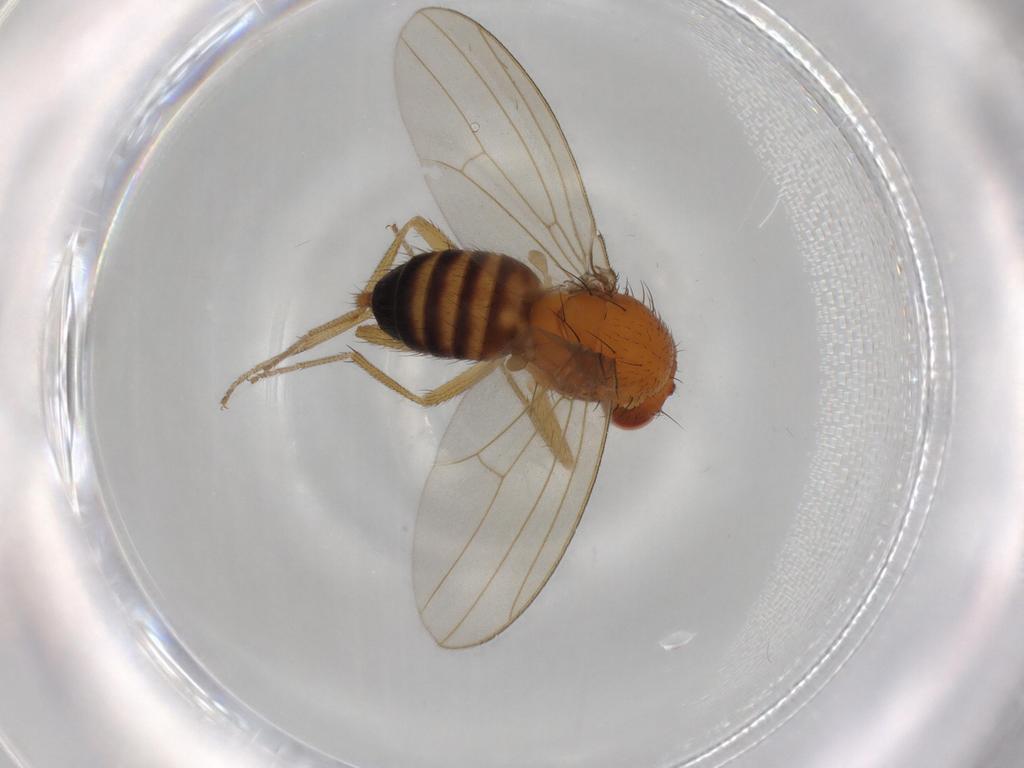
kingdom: Animalia
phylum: Arthropoda
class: Insecta
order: Diptera
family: Drosophilidae
